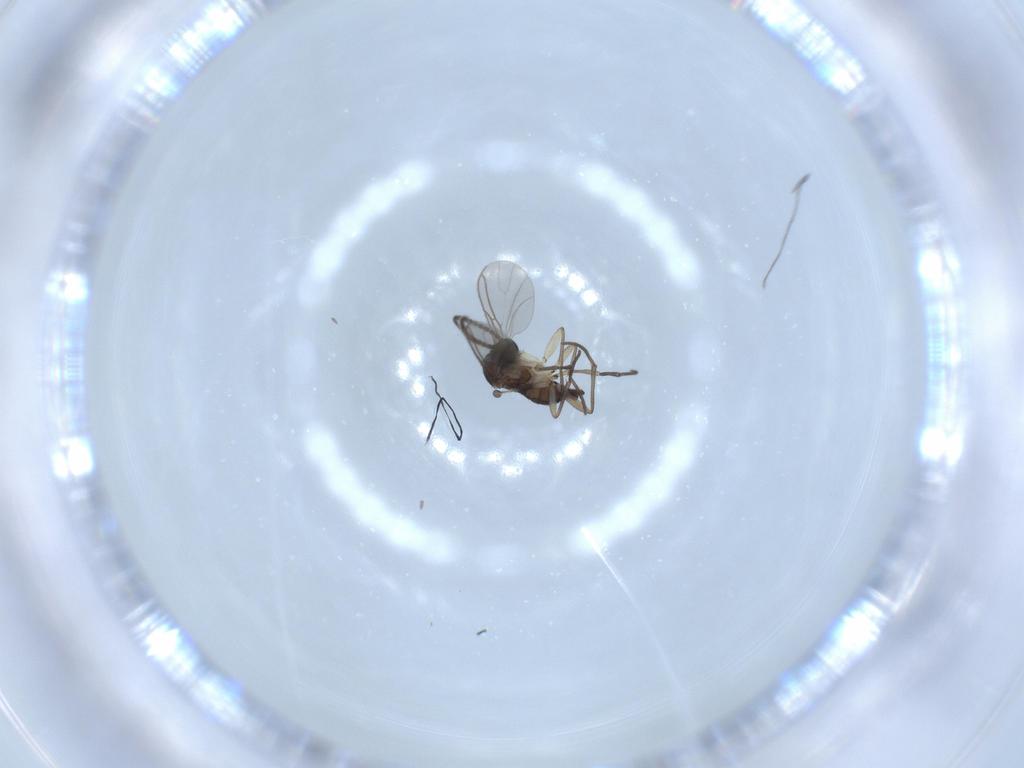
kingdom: Animalia
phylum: Arthropoda
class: Insecta
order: Diptera
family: Sciaridae
